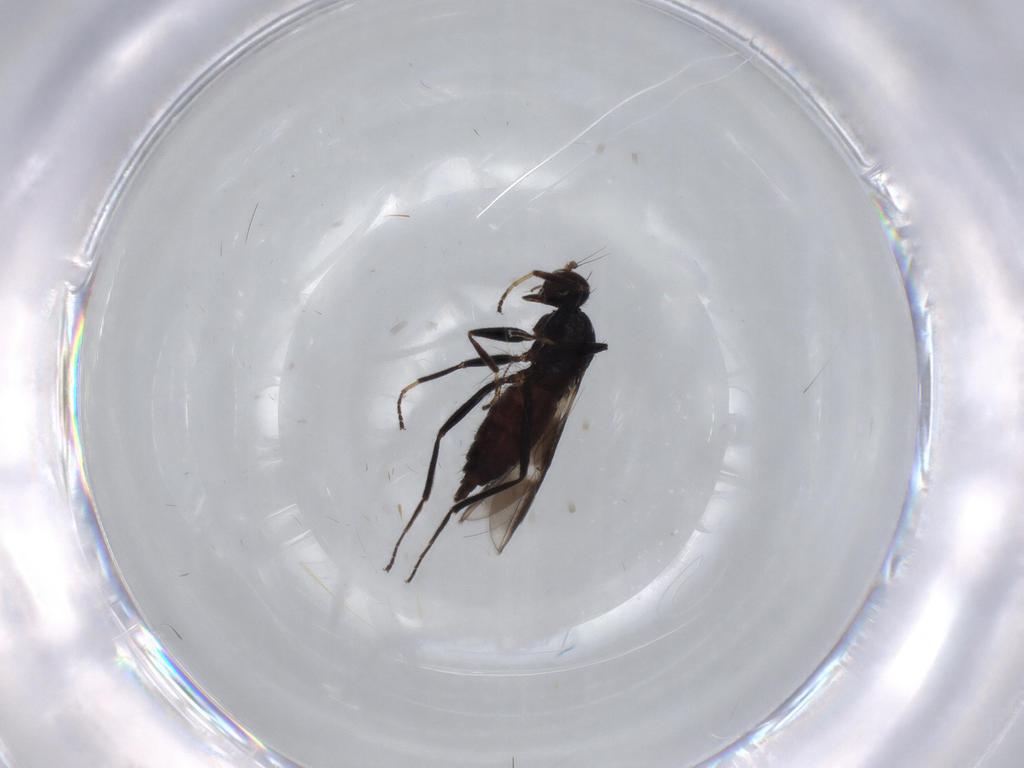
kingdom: Animalia
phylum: Arthropoda
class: Insecta
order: Diptera
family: Hybotidae
